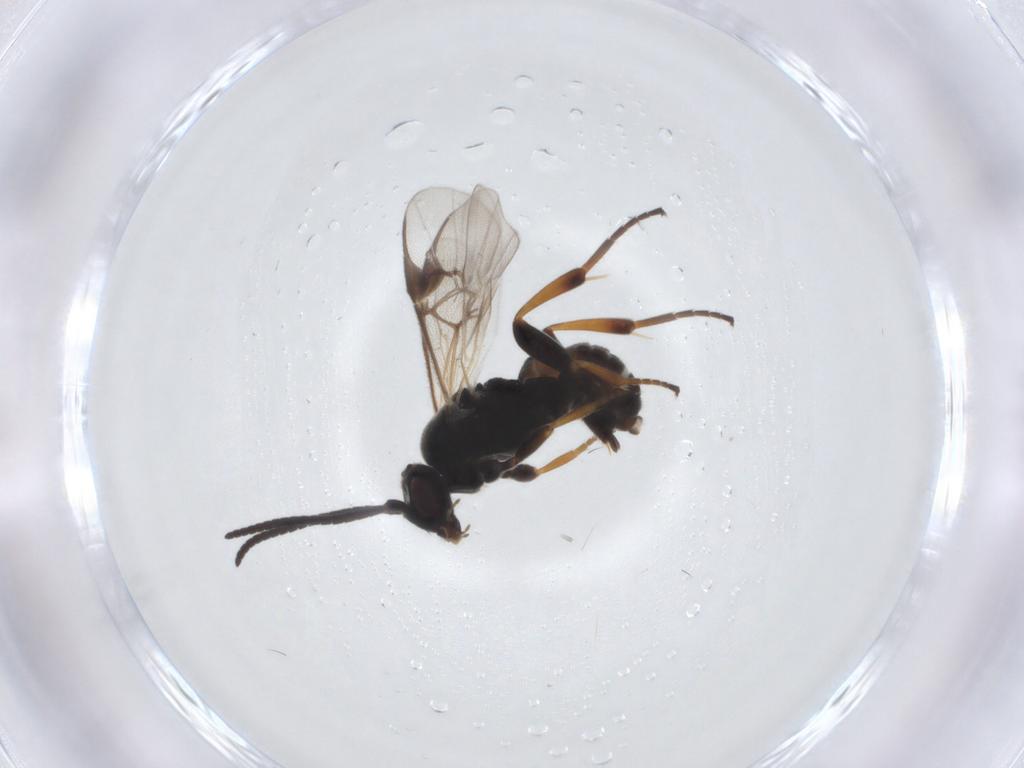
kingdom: Animalia
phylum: Arthropoda
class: Insecta
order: Hymenoptera
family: Braconidae
